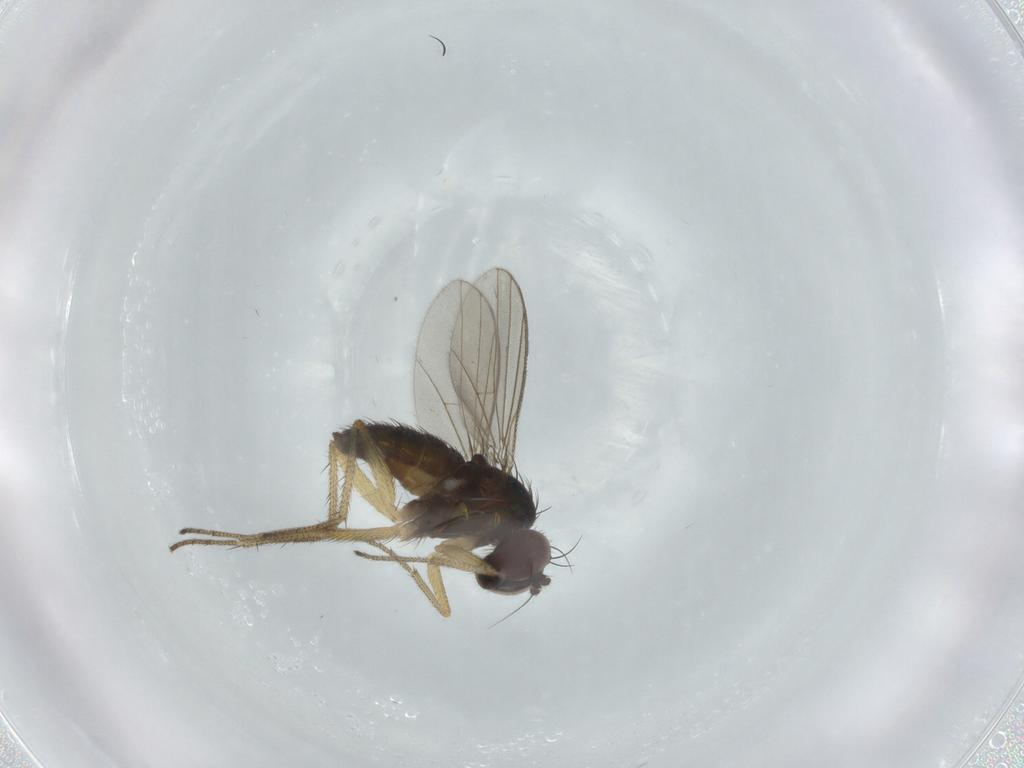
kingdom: Animalia
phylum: Arthropoda
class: Insecta
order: Diptera
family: Dolichopodidae
